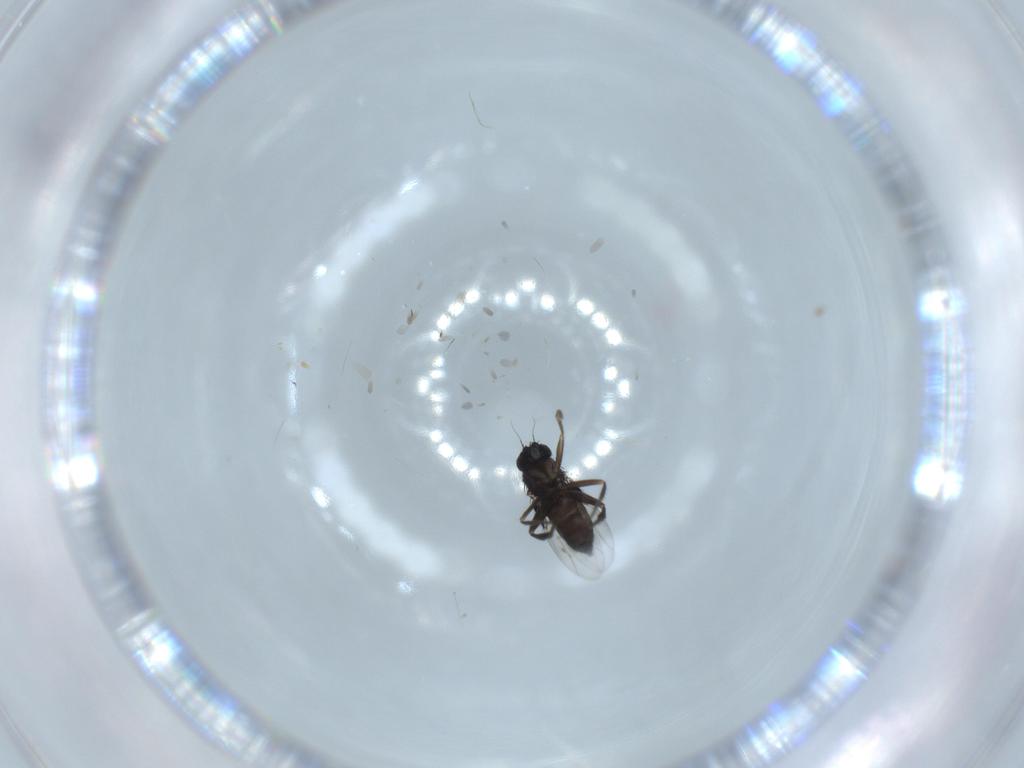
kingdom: Animalia
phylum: Arthropoda
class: Insecta
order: Diptera
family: Phoridae
